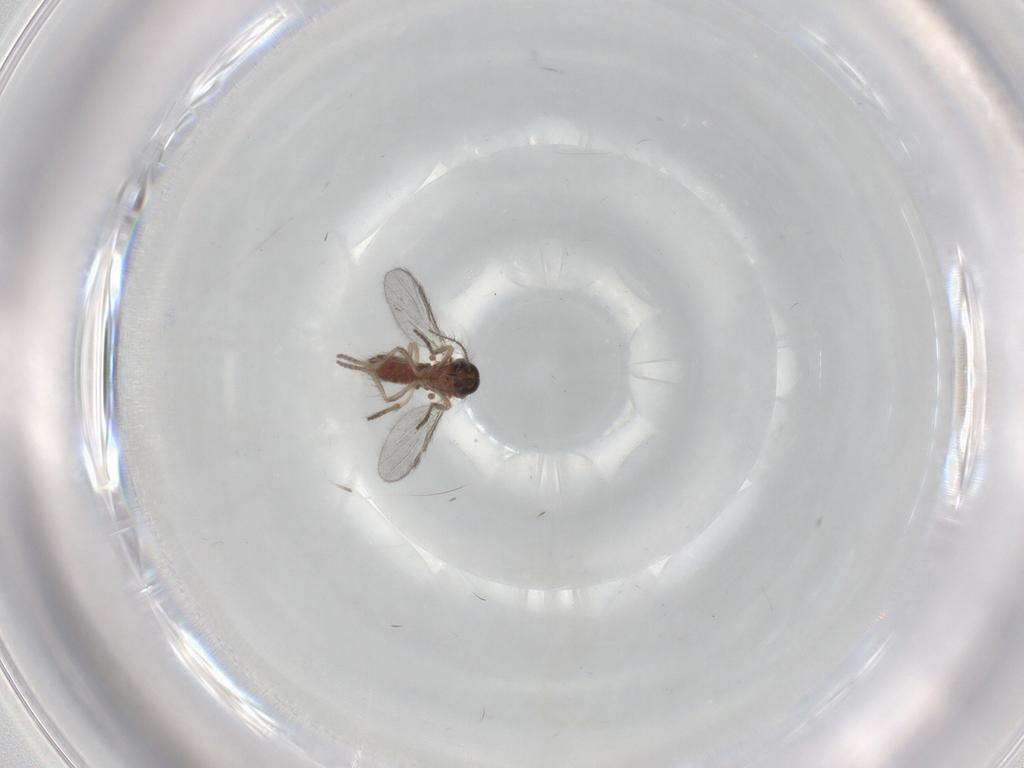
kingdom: Animalia
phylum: Arthropoda
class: Insecta
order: Diptera
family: Ceratopogonidae
